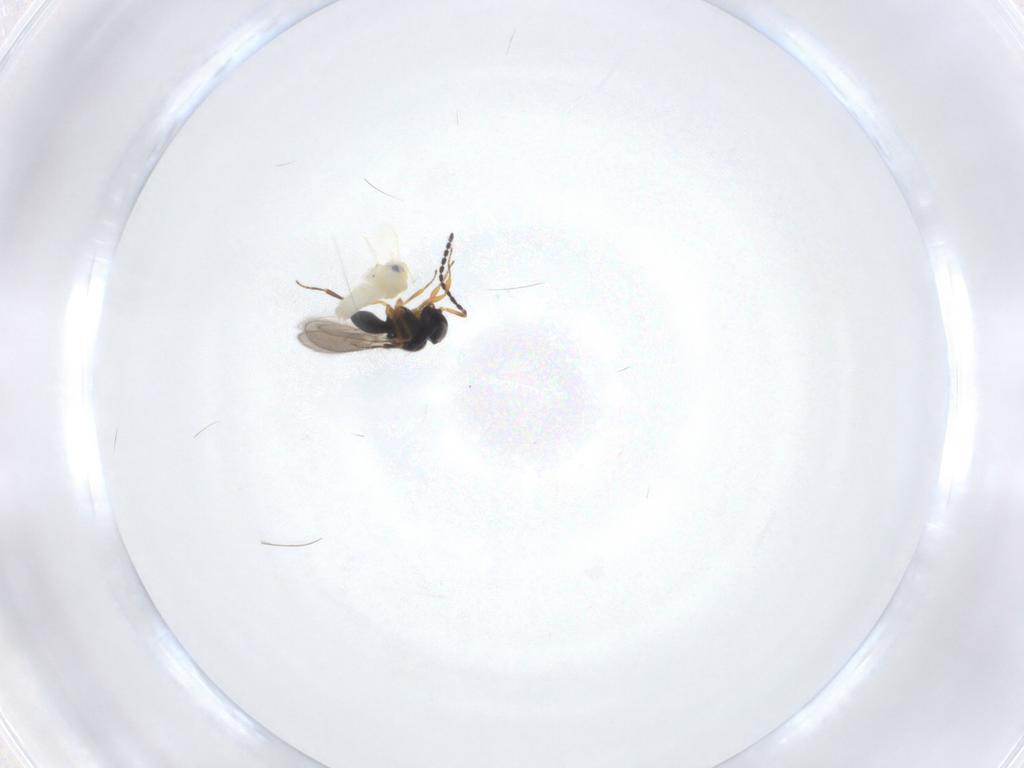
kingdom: Animalia
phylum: Arthropoda
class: Insecta
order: Hymenoptera
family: Scelionidae
